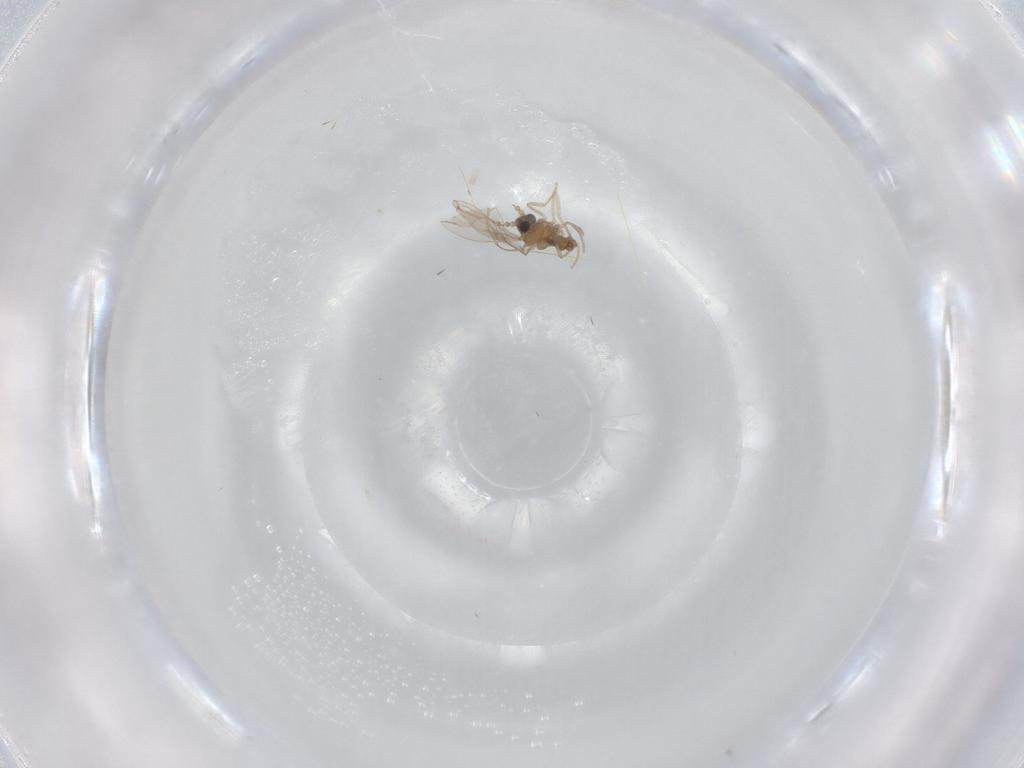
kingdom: Animalia
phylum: Arthropoda
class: Insecta
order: Diptera
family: Cecidomyiidae
